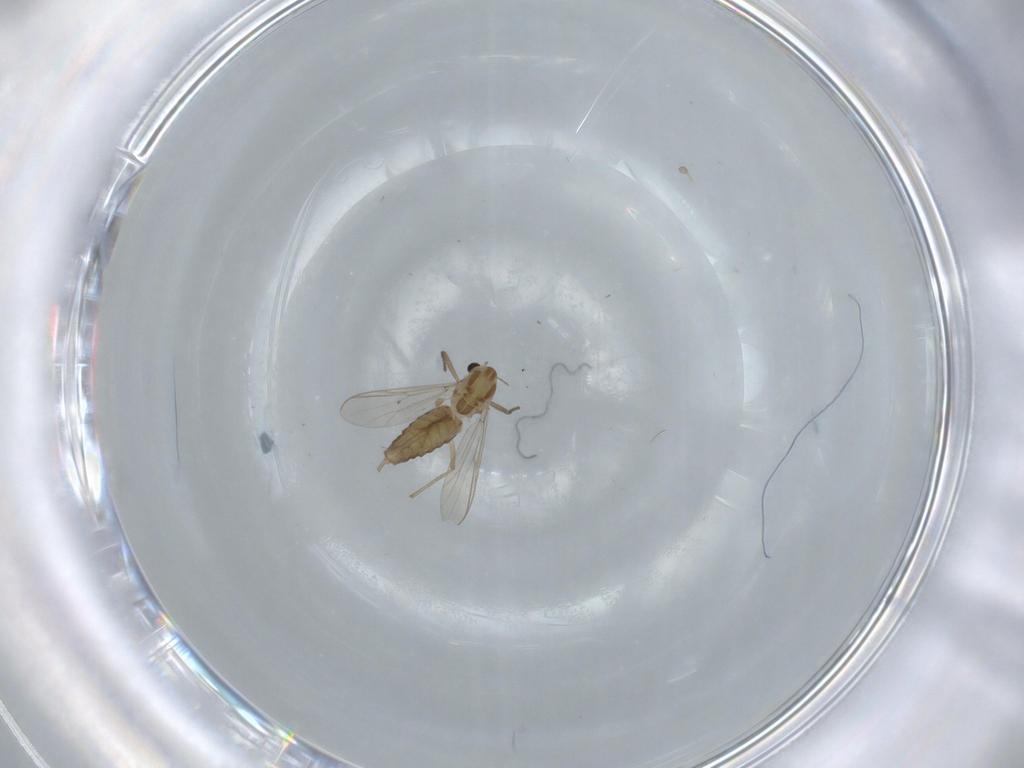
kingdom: Animalia
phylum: Arthropoda
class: Insecta
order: Diptera
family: Chironomidae
